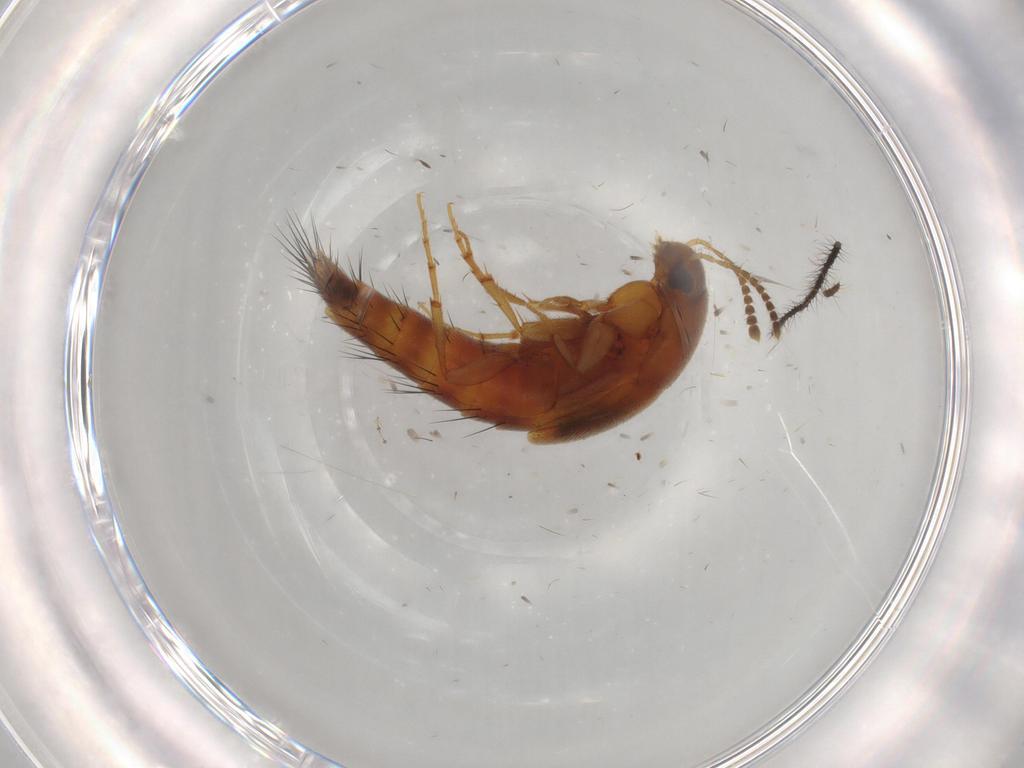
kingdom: Animalia
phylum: Arthropoda
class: Insecta
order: Coleoptera
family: Staphylinidae
